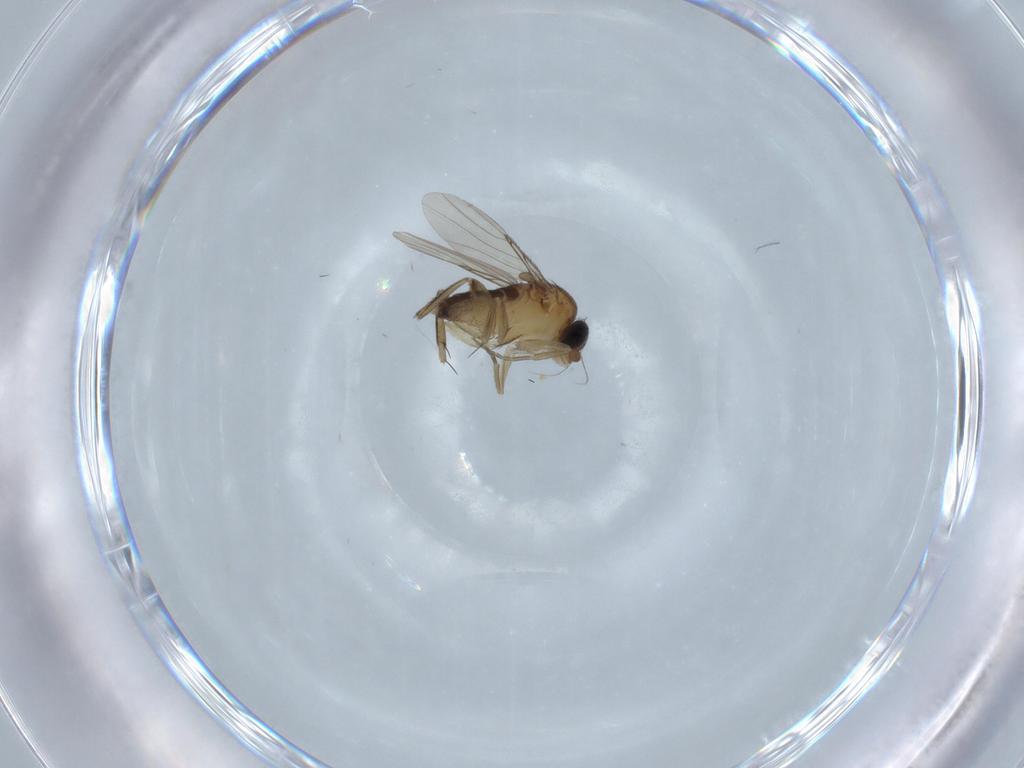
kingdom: Animalia
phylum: Arthropoda
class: Insecta
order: Diptera
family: Phoridae
